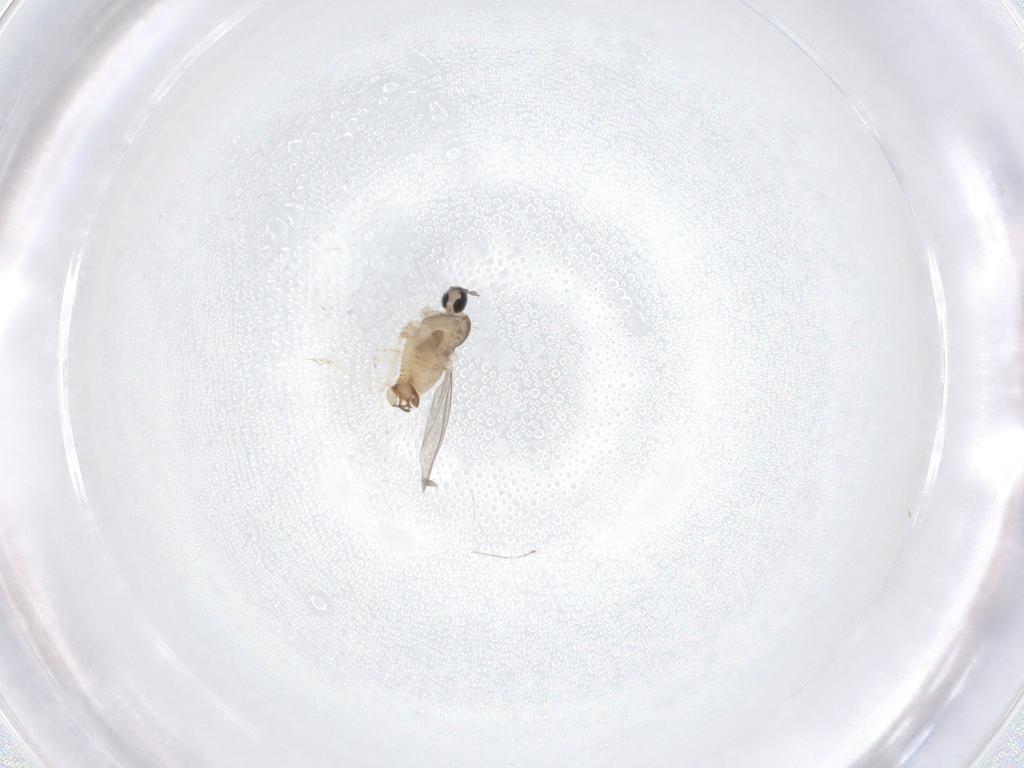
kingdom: Animalia
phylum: Arthropoda
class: Insecta
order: Diptera
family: Cecidomyiidae
